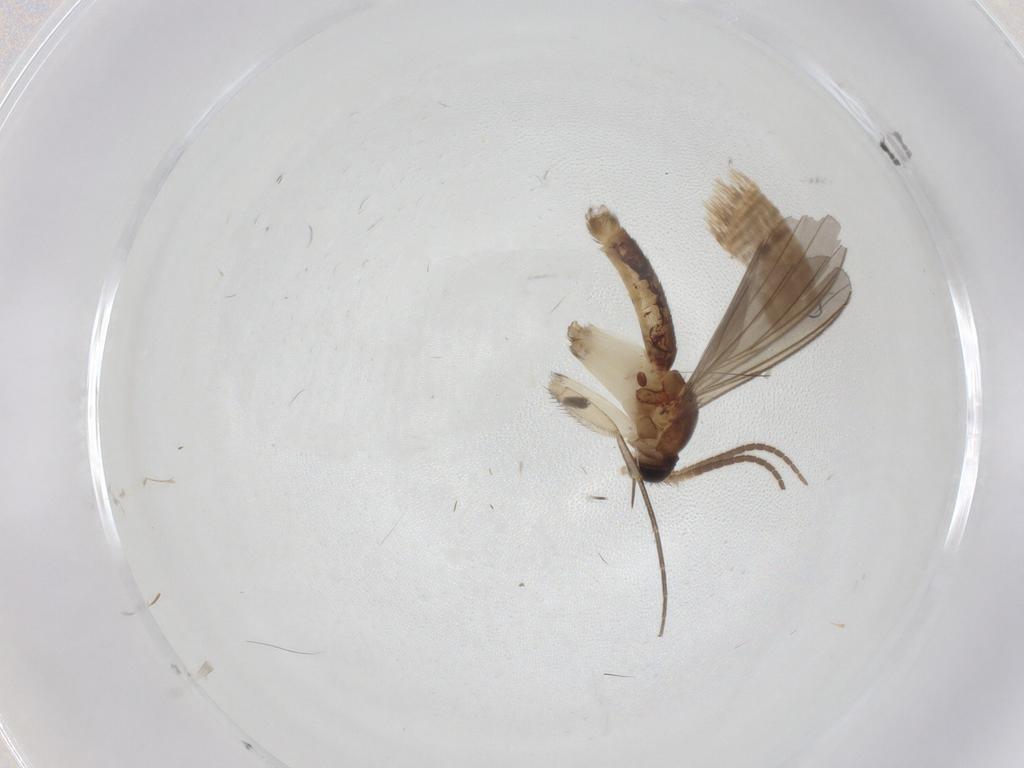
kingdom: Animalia
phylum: Arthropoda
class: Insecta
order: Diptera
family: Mycetophilidae
